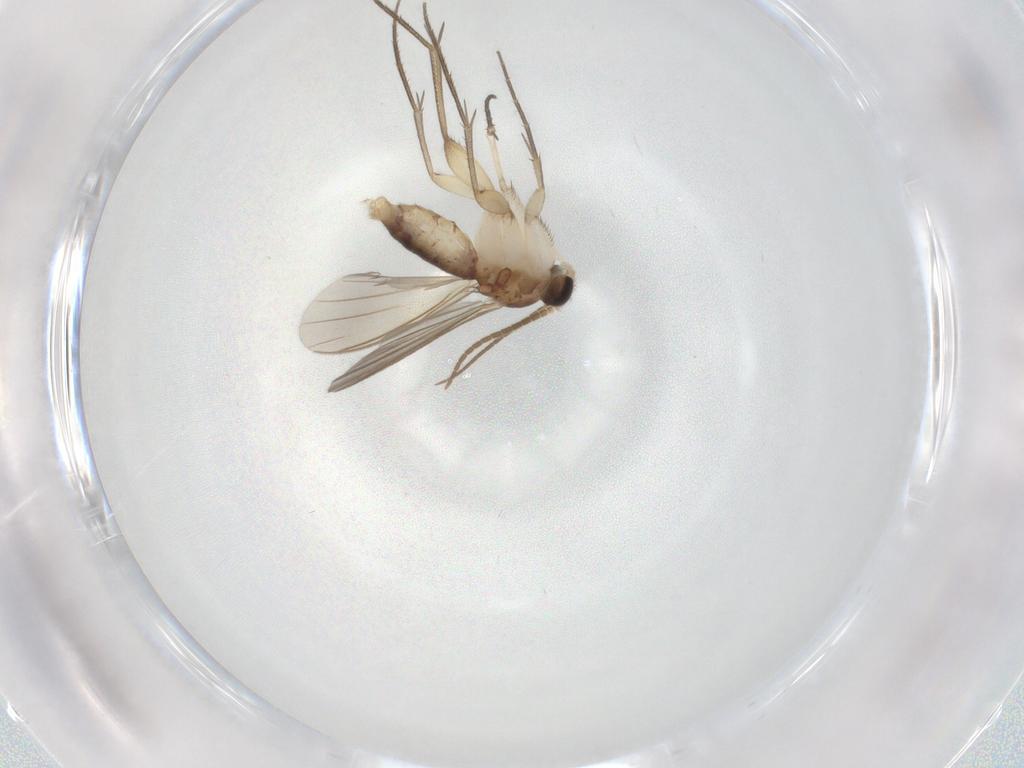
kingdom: Animalia
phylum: Arthropoda
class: Insecta
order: Diptera
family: Mycetophilidae
